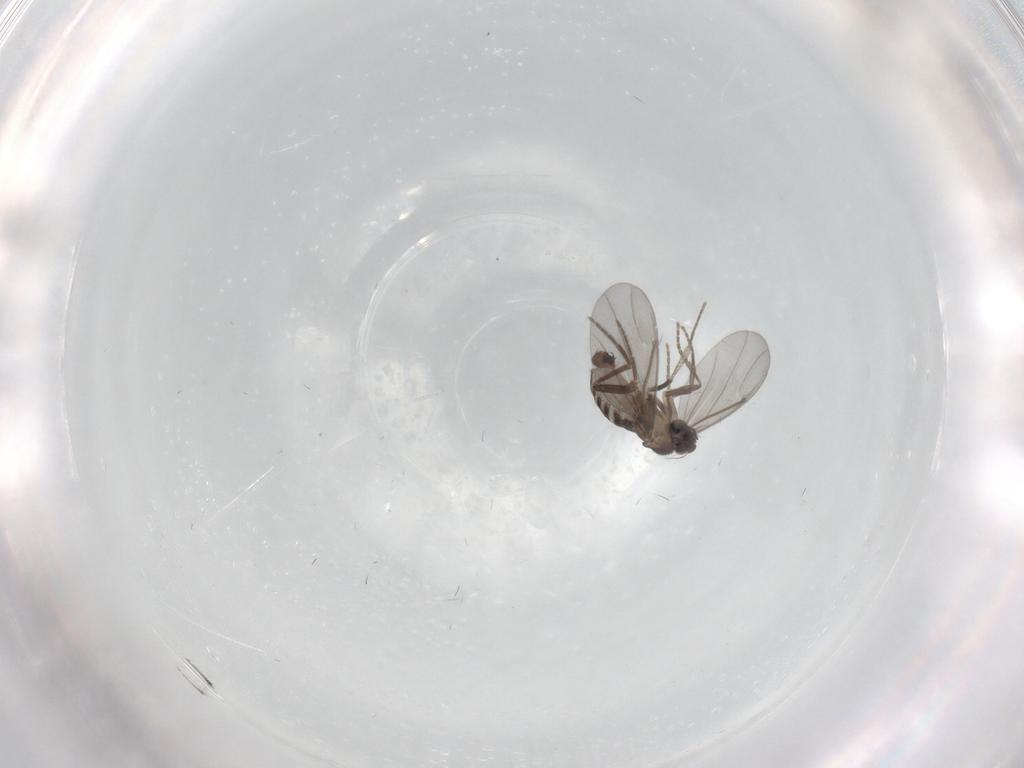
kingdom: Animalia
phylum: Arthropoda
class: Insecta
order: Diptera
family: Phoridae
